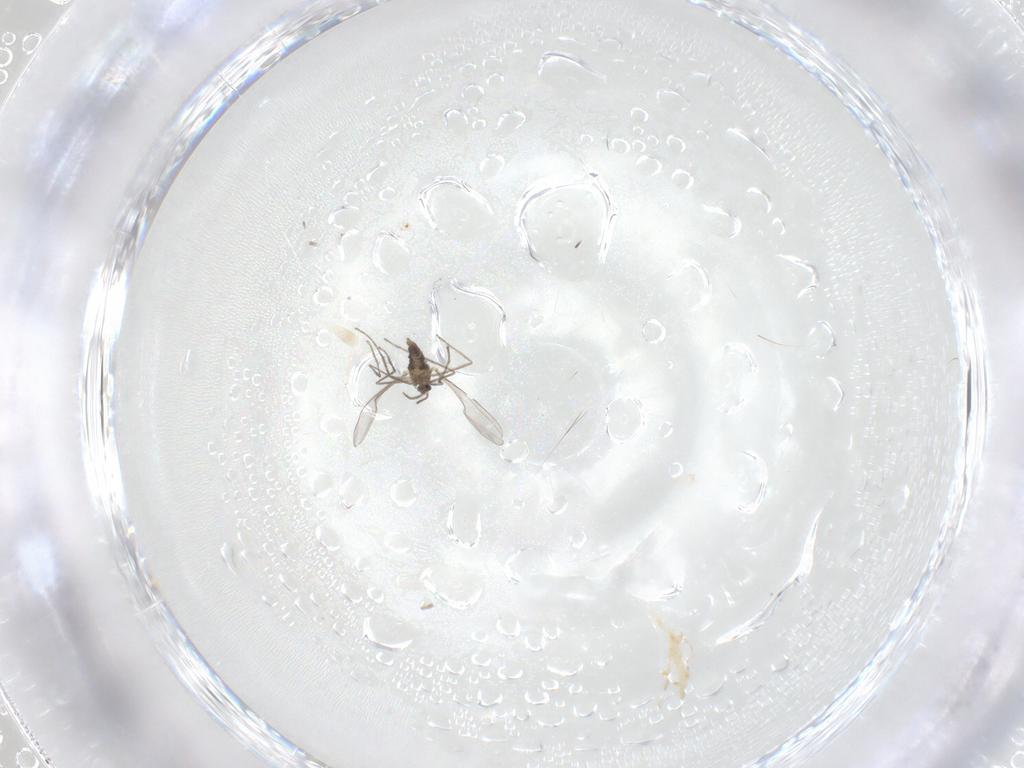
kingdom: Animalia
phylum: Arthropoda
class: Insecta
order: Diptera
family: Cecidomyiidae
